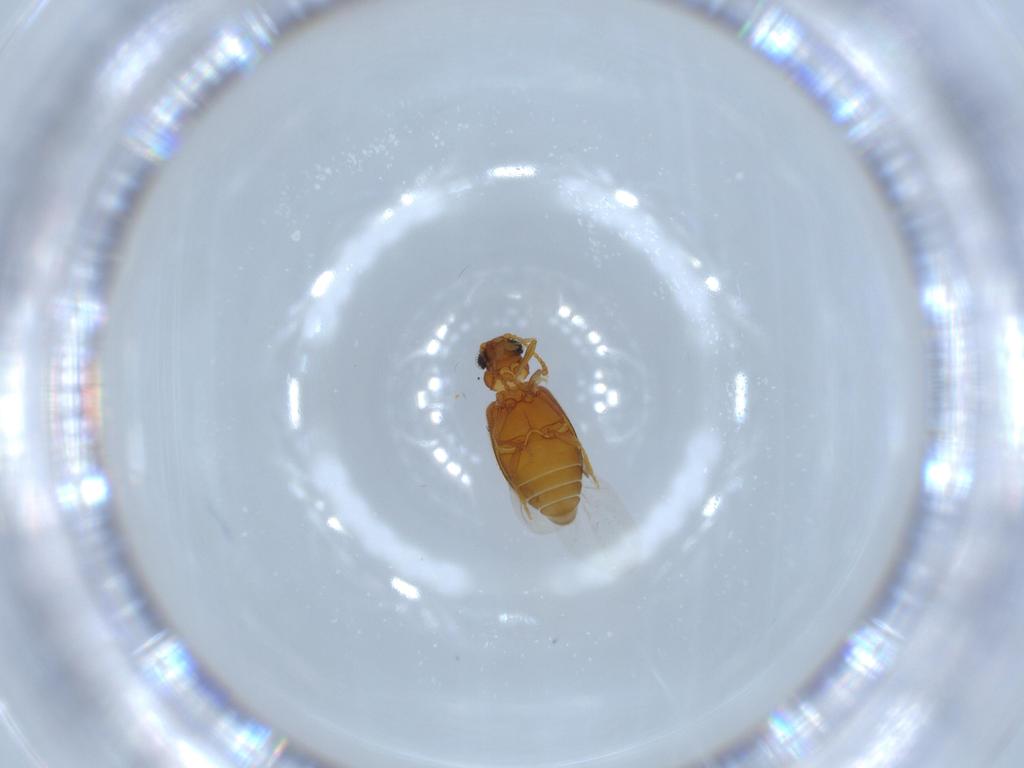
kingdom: Animalia
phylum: Arthropoda
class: Insecta
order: Coleoptera
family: Aderidae
